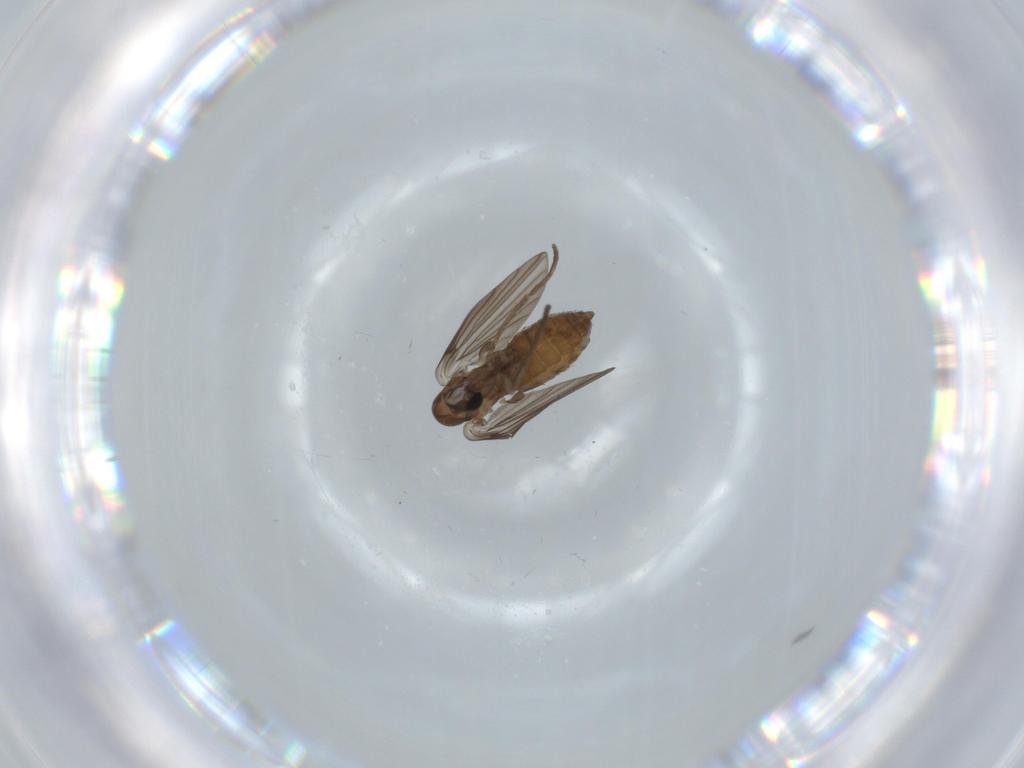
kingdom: Animalia
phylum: Arthropoda
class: Insecta
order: Diptera
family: Psychodidae
